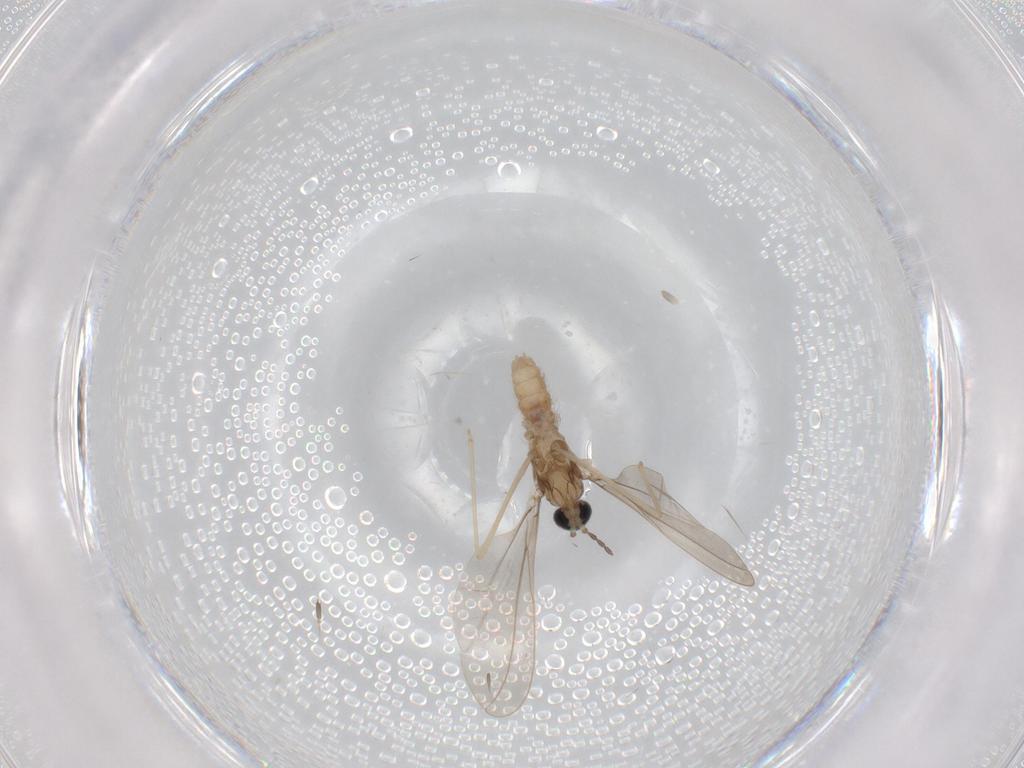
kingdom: Animalia
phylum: Arthropoda
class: Insecta
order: Diptera
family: Cecidomyiidae
